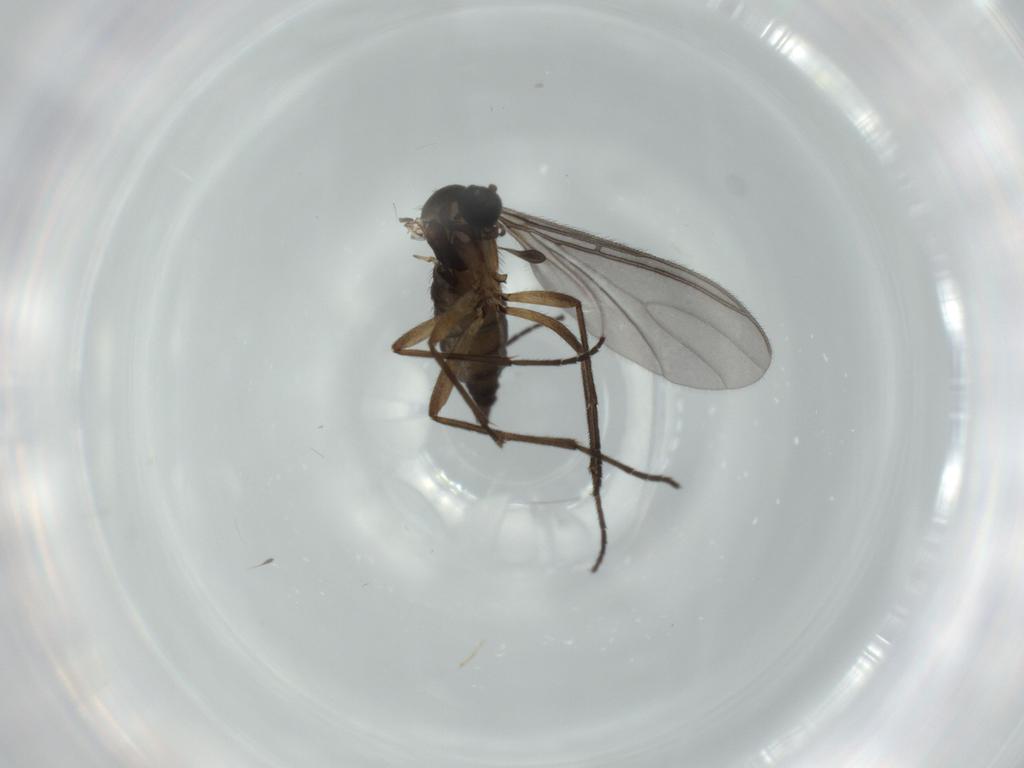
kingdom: Animalia
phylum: Arthropoda
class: Insecta
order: Diptera
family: Sciaridae
